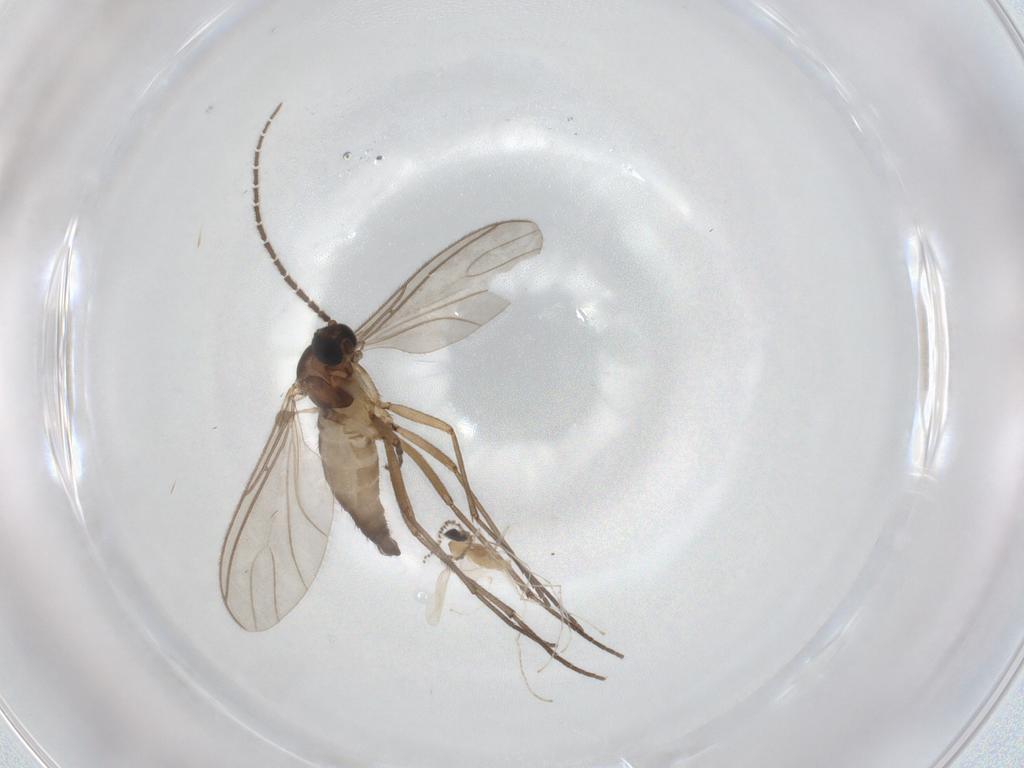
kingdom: Animalia
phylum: Arthropoda
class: Insecta
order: Diptera
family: Cecidomyiidae
